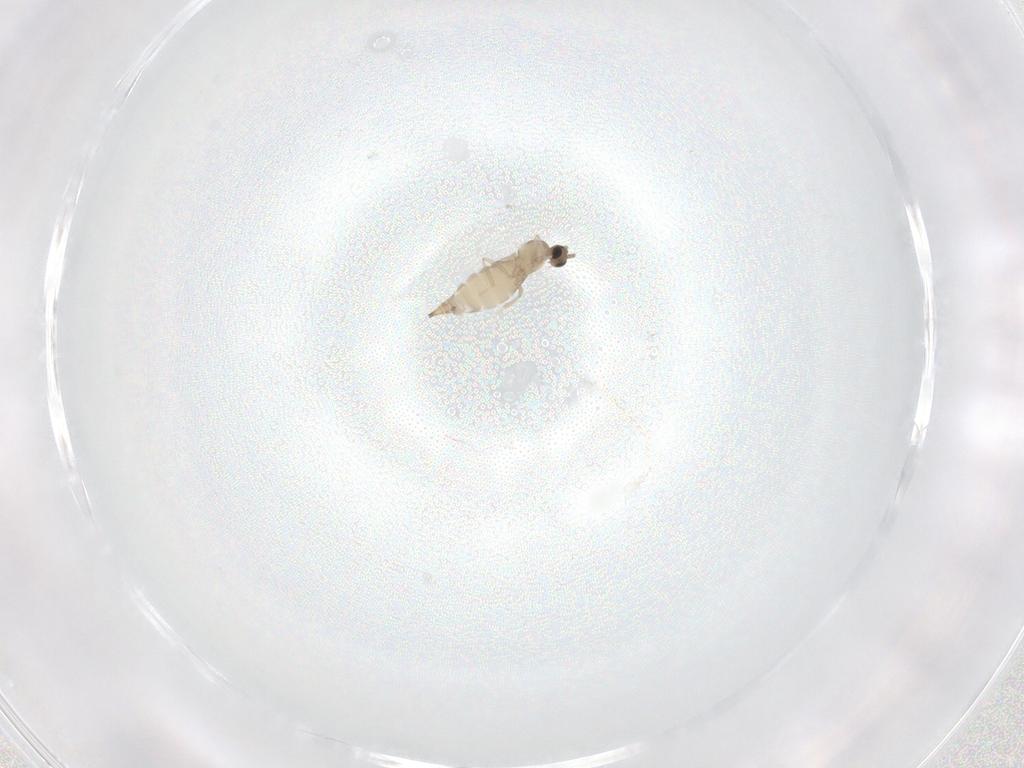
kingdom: Animalia
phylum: Arthropoda
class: Insecta
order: Diptera
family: Cecidomyiidae
